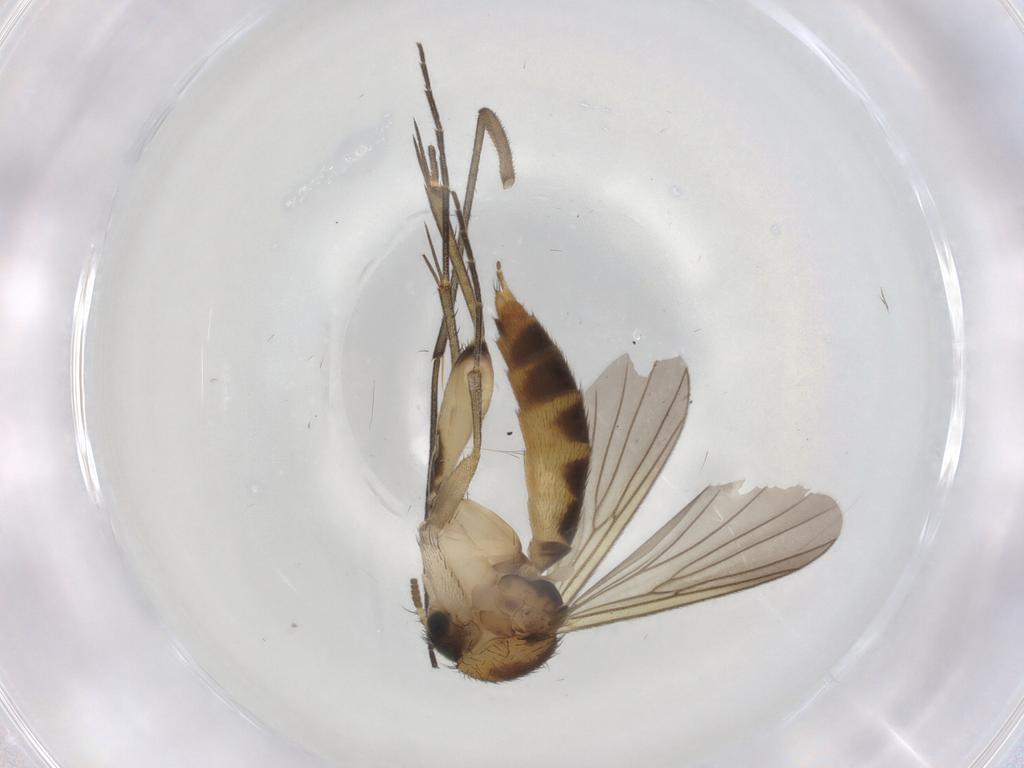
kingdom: Animalia
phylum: Arthropoda
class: Insecta
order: Diptera
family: Sciaridae
